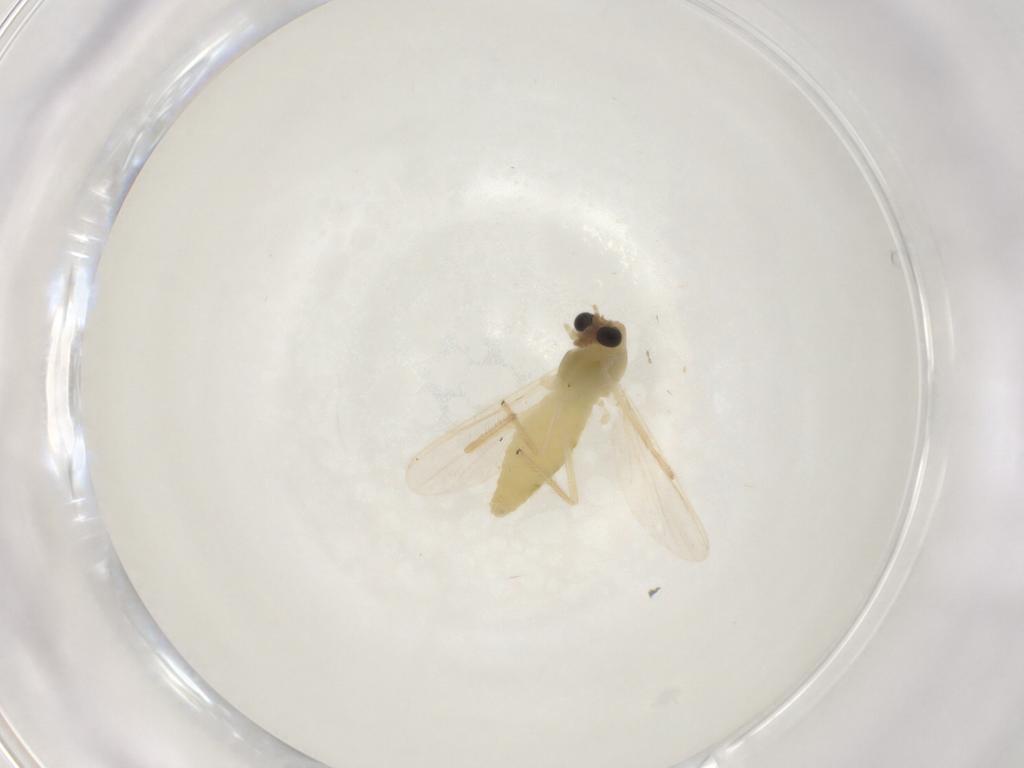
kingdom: Animalia
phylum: Arthropoda
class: Insecta
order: Diptera
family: Chironomidae
